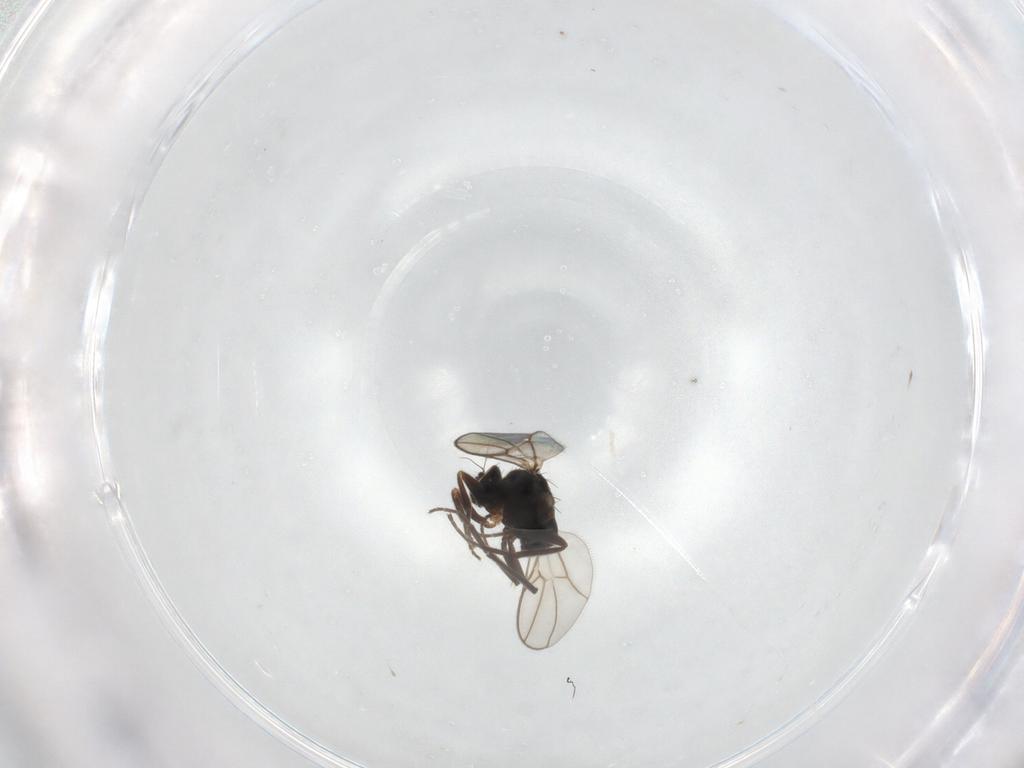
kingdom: Animalia
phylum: Arthropoda
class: Insecta
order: Diptera
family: Hybotidae
